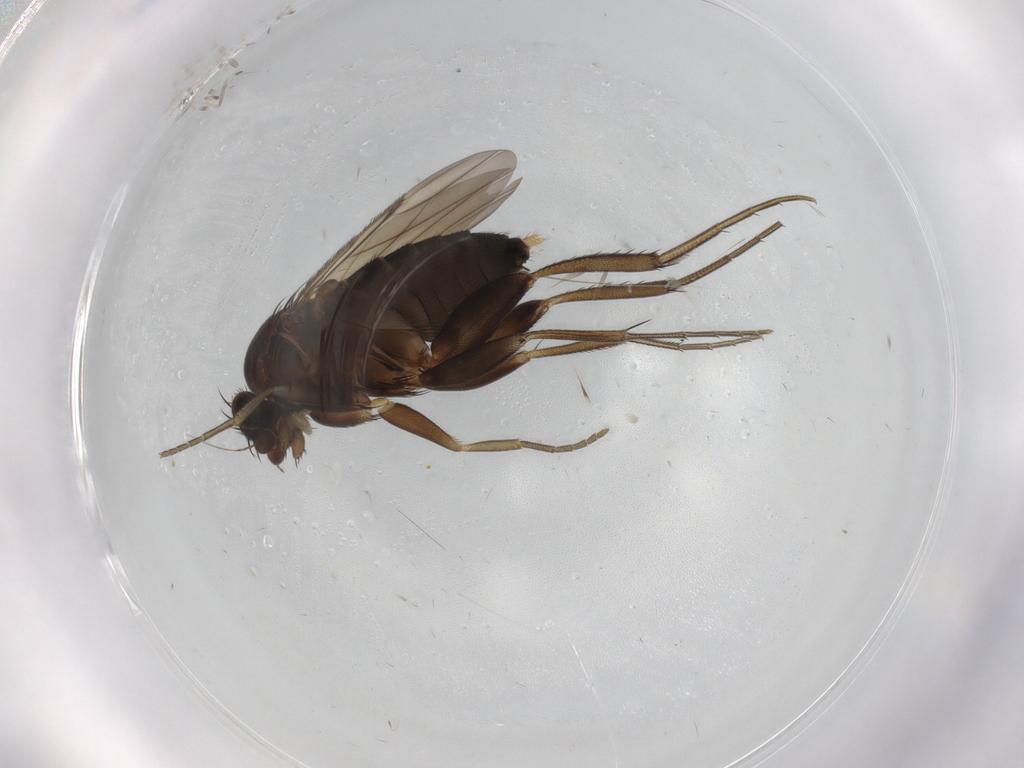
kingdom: Animalia
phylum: Arthropoda
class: Insecta
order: Diptera
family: Phoridae
